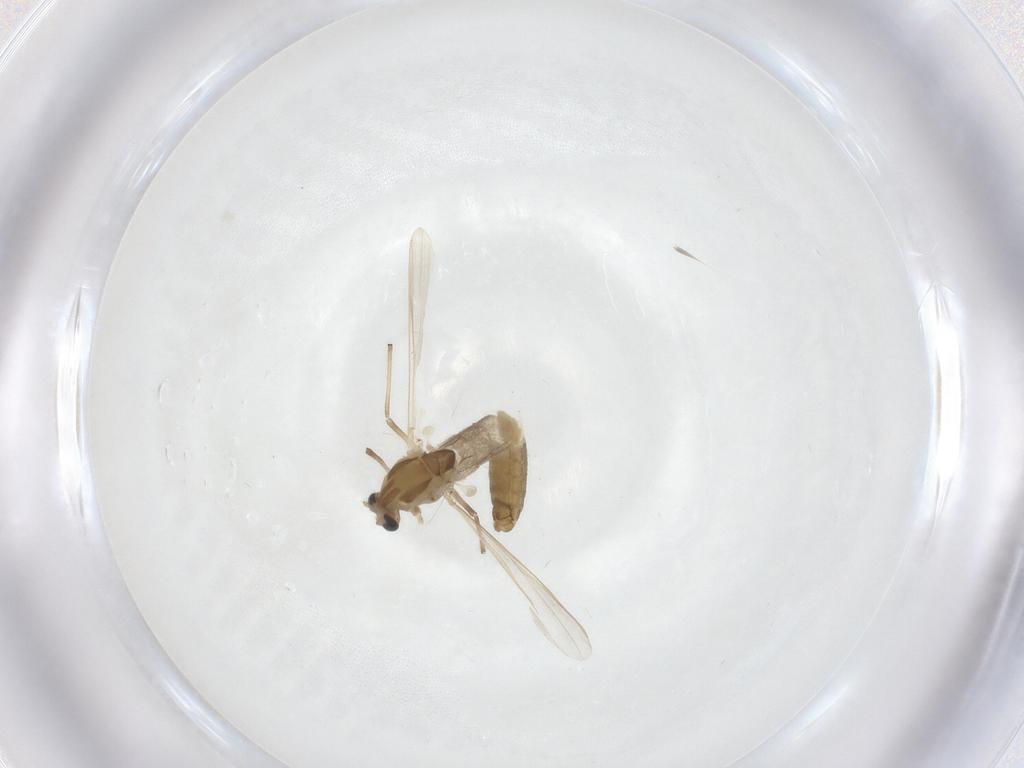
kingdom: Animalia
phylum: Arthropoda
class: Insecta
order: Diptera
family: Chironomidae
